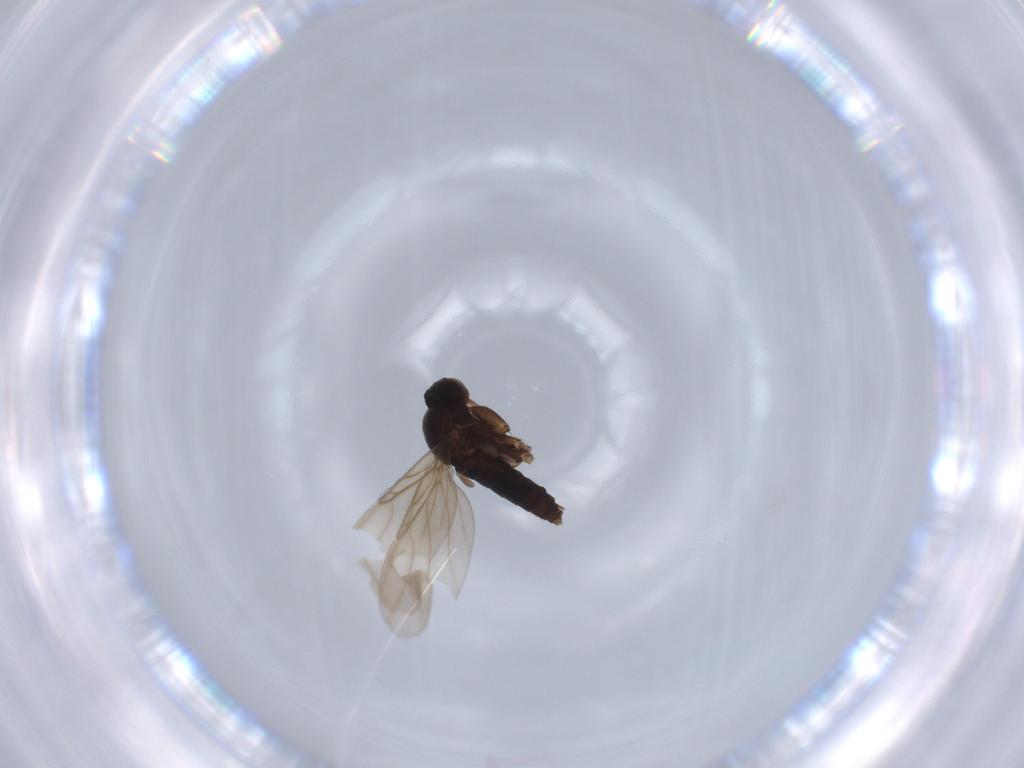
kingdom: Animalia
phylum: Arthropoda
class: Insecta
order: Diptera
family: Phoridae
